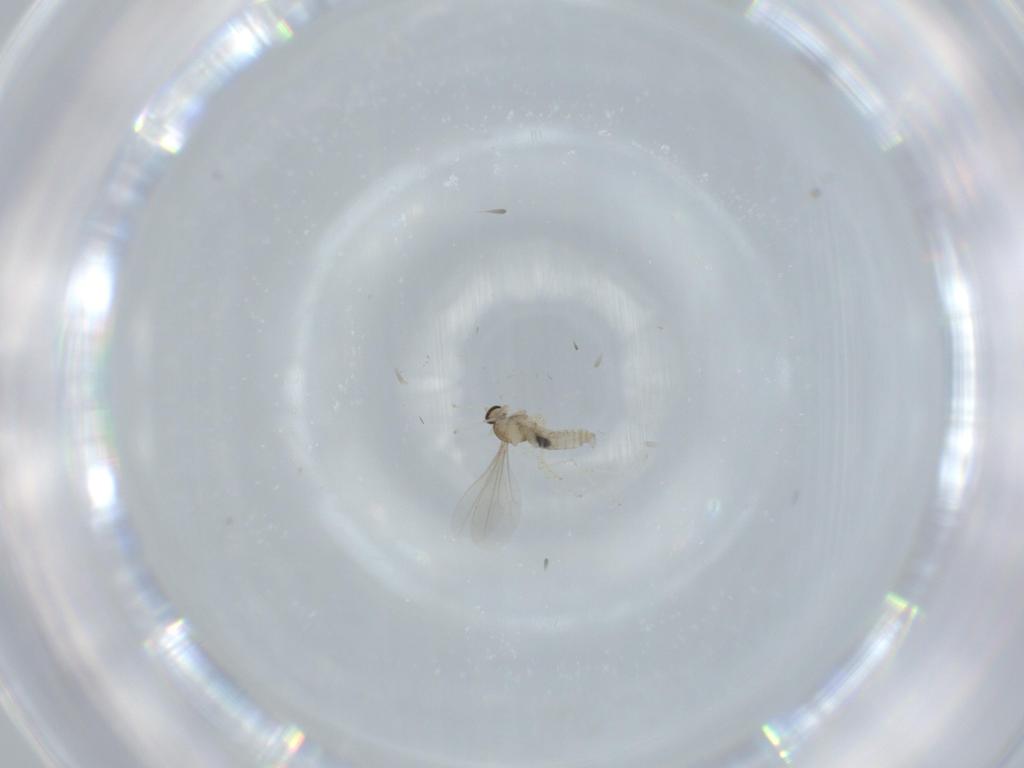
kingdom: Animalia
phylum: Arthropoda
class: Insecta
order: Diptera
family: Cecidomyiidae
